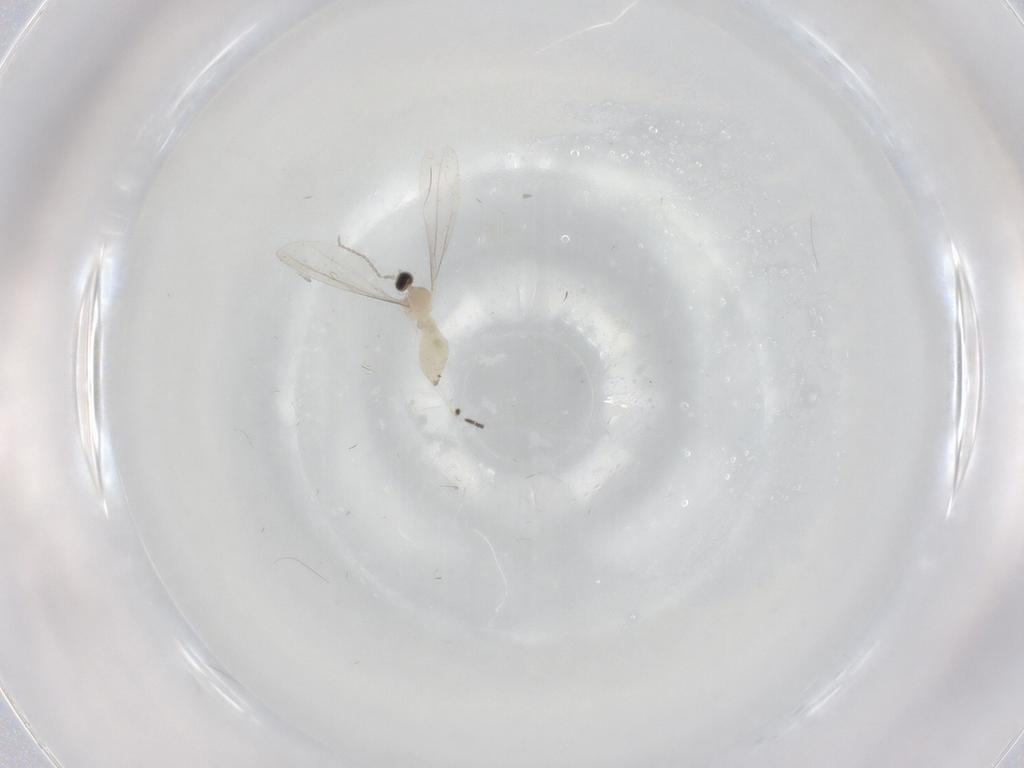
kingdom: Animalia
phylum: Arthropoda
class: Insecta
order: Diptera
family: Cecidomyiidae
